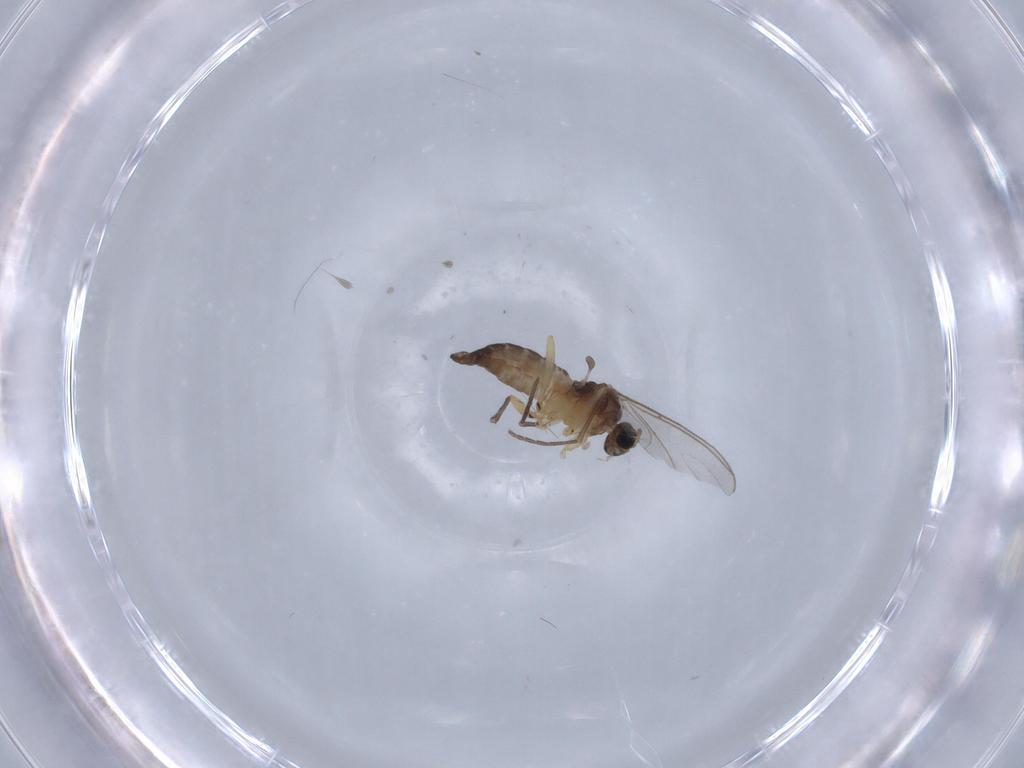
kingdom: Animalia
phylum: Arthropoda
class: Insecta
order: Diptera
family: Sciaridae
